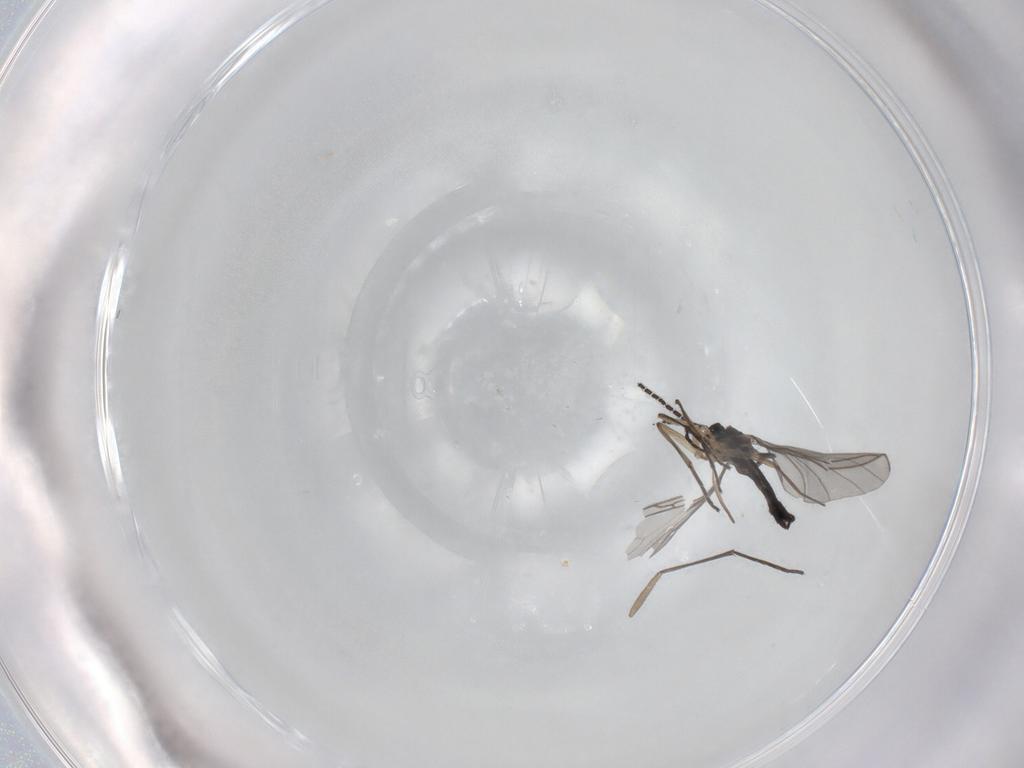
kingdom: Animalia
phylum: Arthropoda
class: Insecta
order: Diptera
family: Sciaridae
